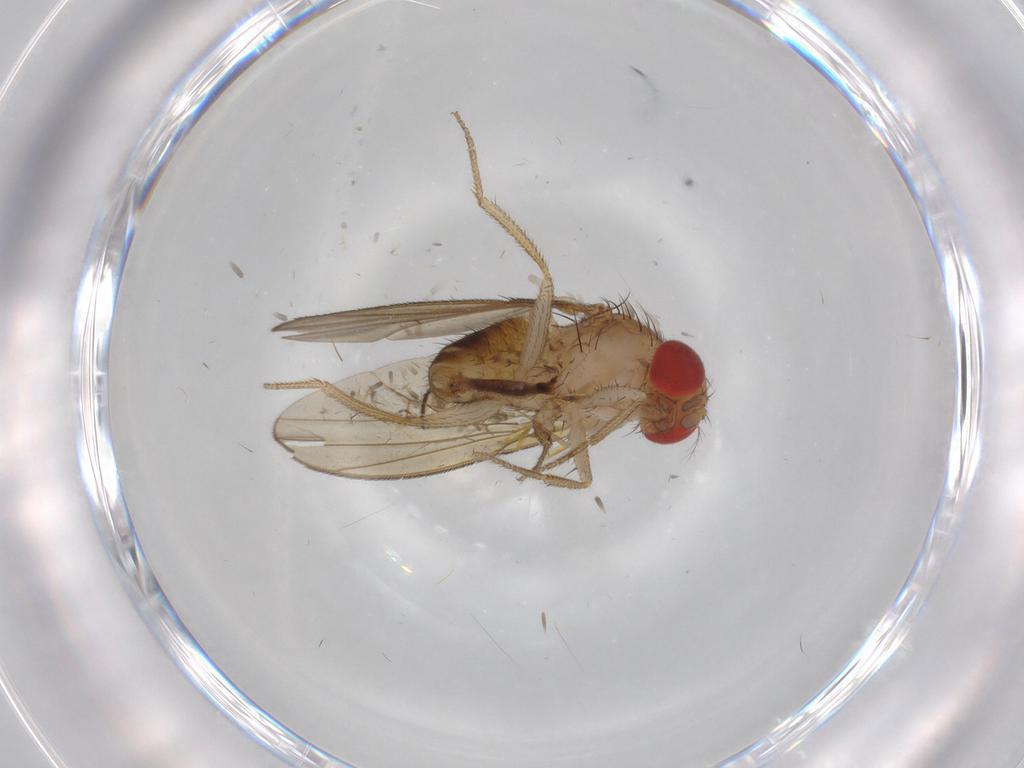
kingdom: Animalia
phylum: Arthropoda
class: Insecta
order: Diptera
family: Drosophilidae
